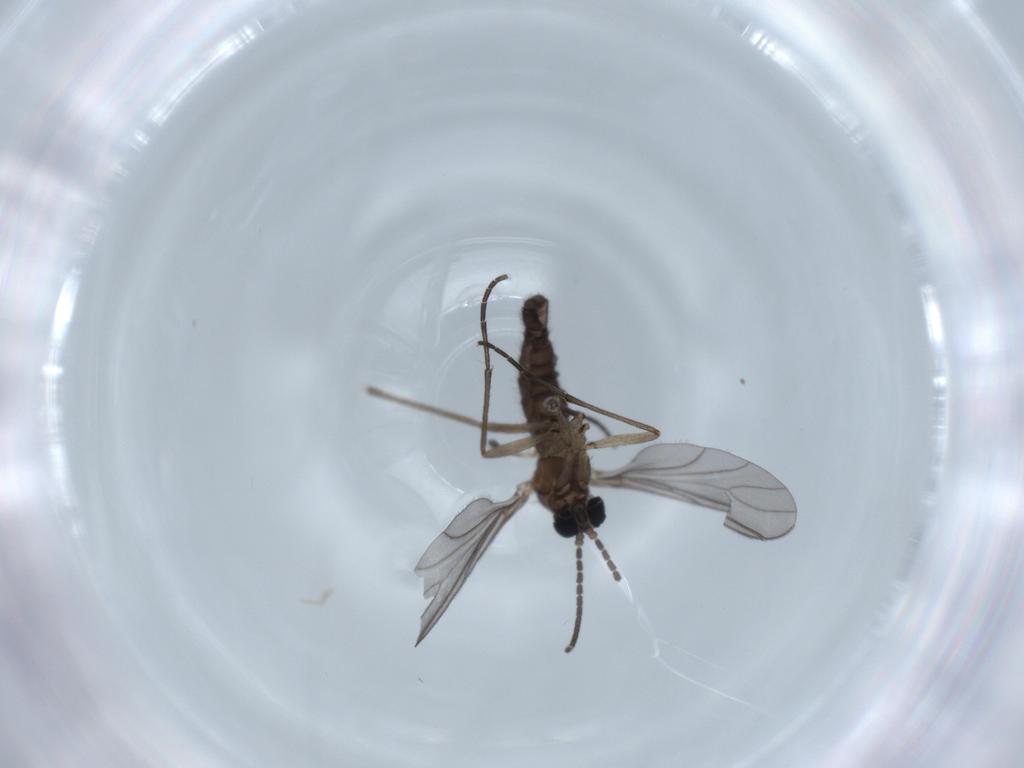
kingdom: Animalia
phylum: Arthropoda
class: Insecta
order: Diptera
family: Sciaridae
